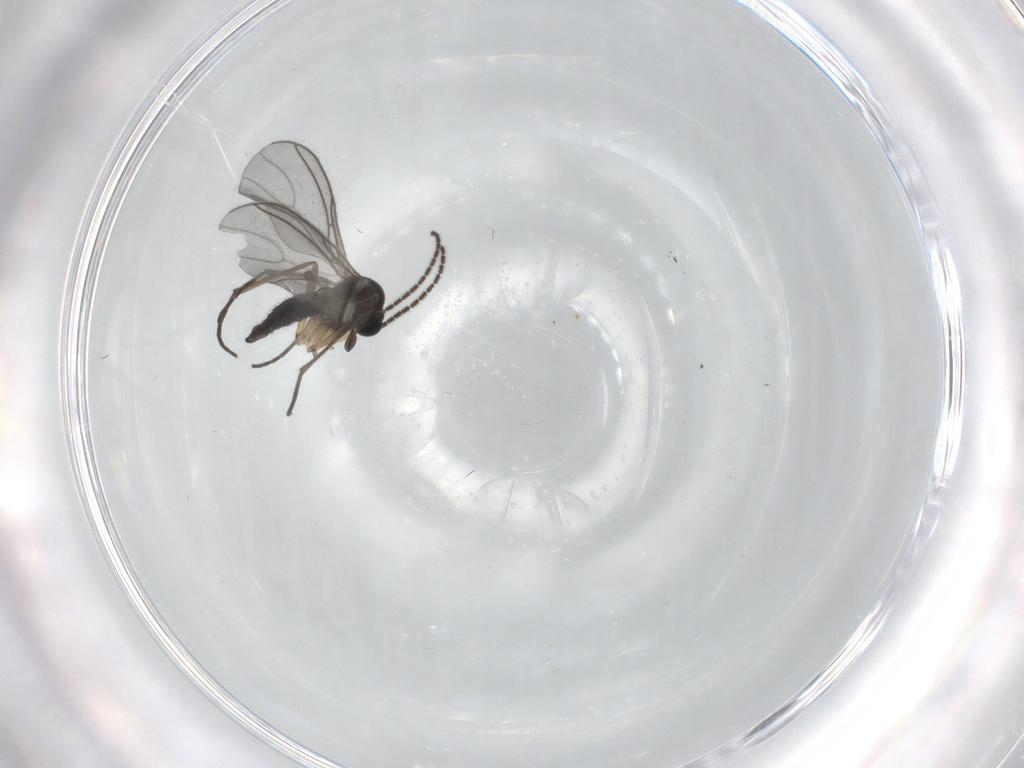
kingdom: Animalia
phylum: Arthropoda
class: Insecta
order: Diptera
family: Sciaridae
